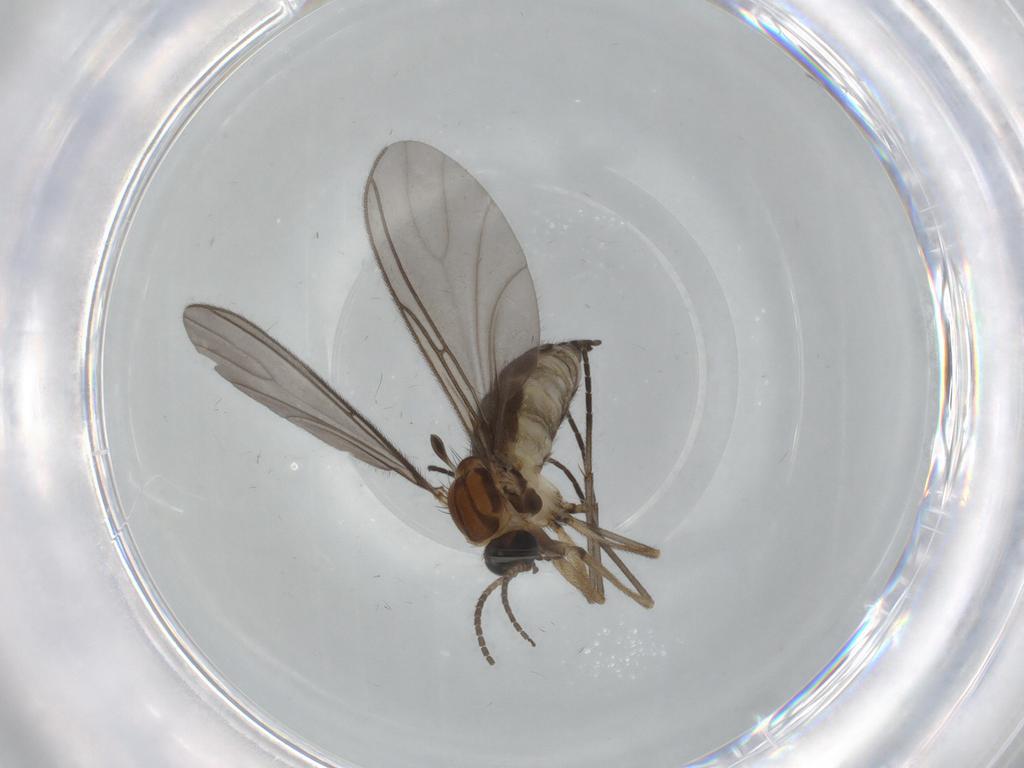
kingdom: Animalia
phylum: Arthropoda
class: Insecta
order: Diptera
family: Sciaridae
